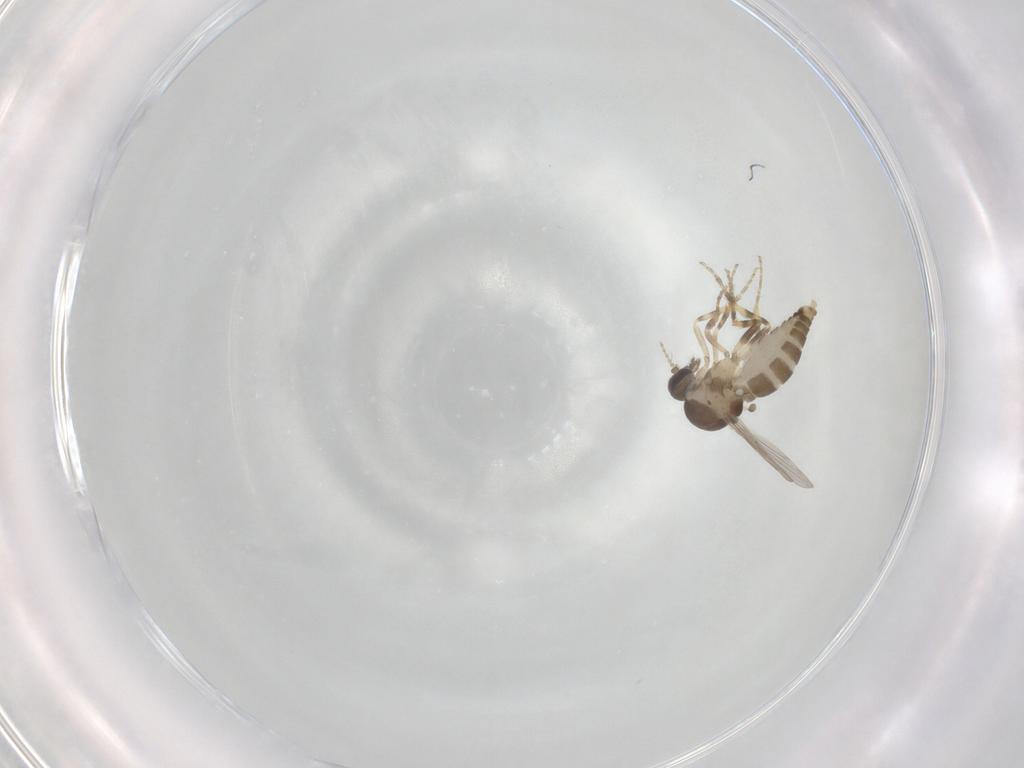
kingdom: Animalia
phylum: Arthropoda
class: Insecta
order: Diptera
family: Ceratopogonidae
